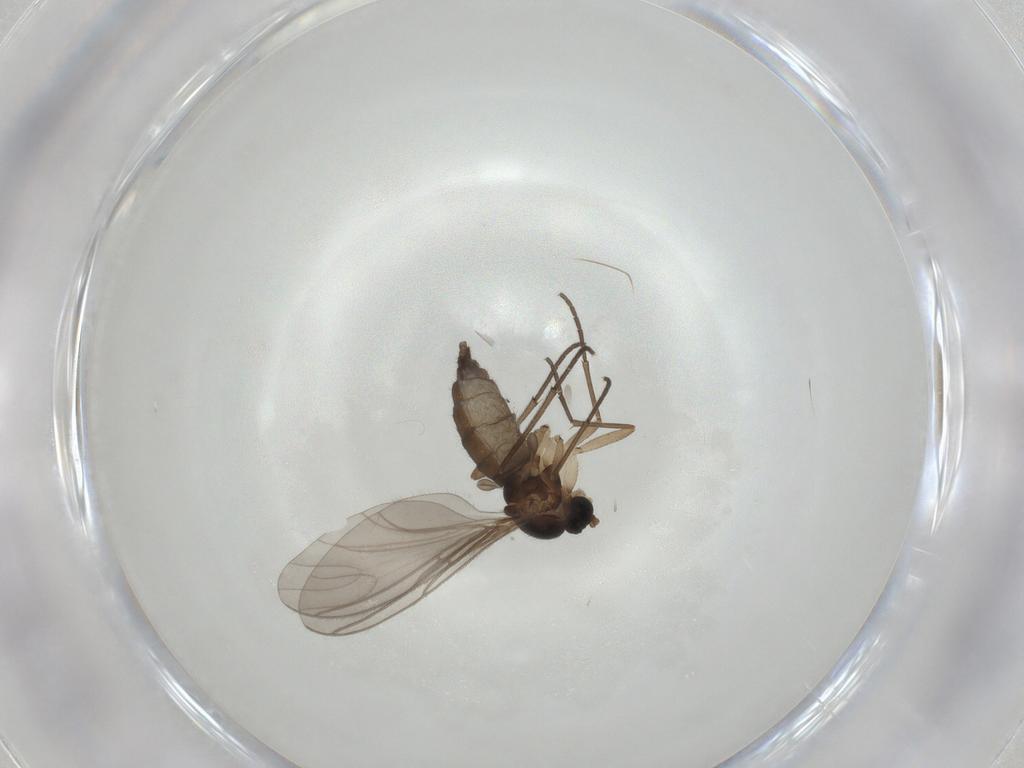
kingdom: Animalia
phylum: Arthropoda
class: Insecta
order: Diptera
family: Sciaridae
